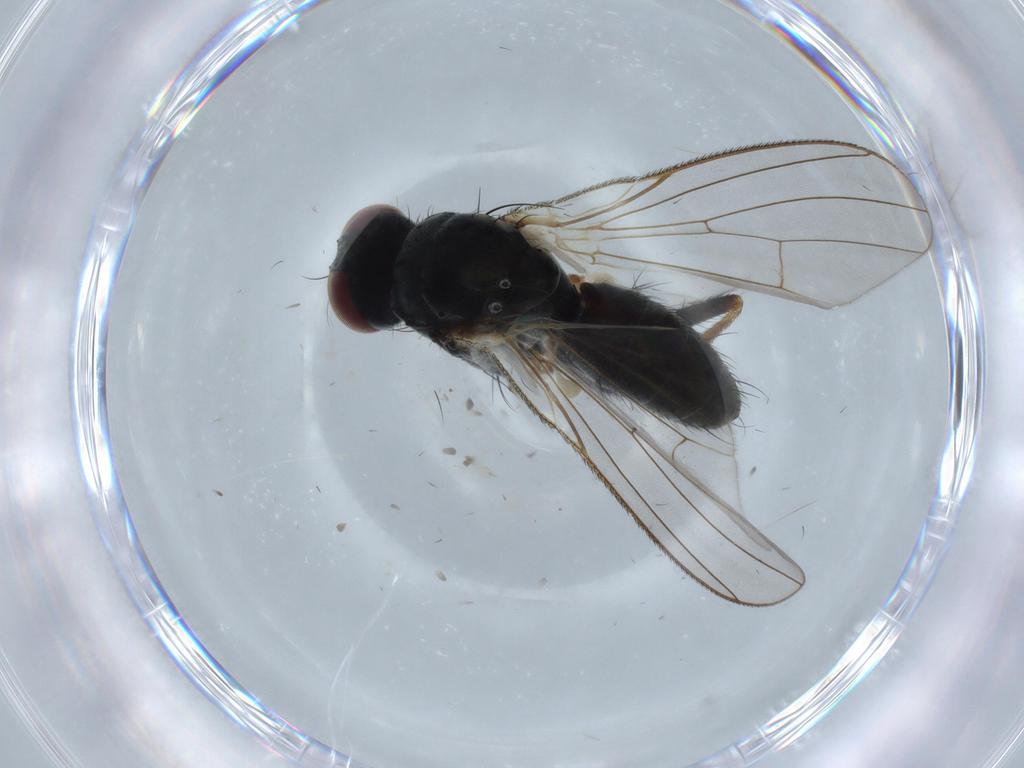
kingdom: Animalia
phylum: Arthropoda
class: Insecta
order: Diptera
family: Muscidae
